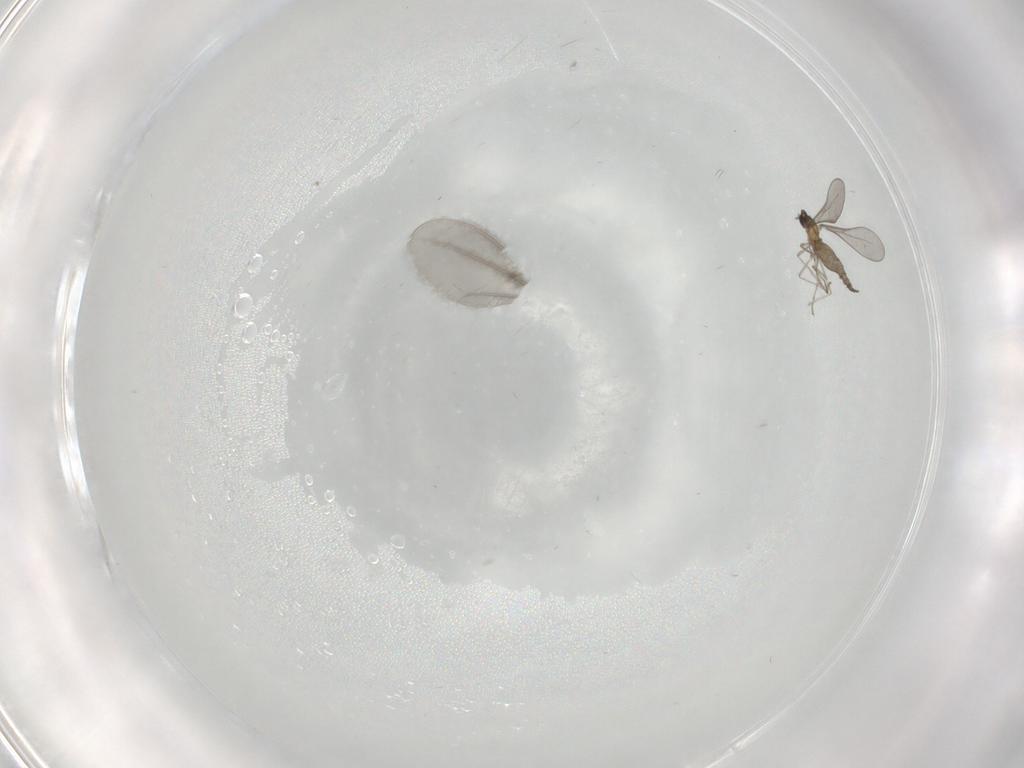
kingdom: Animalia
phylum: Arthropoda
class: Insecta
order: Diptera
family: Cecidomyiidae
